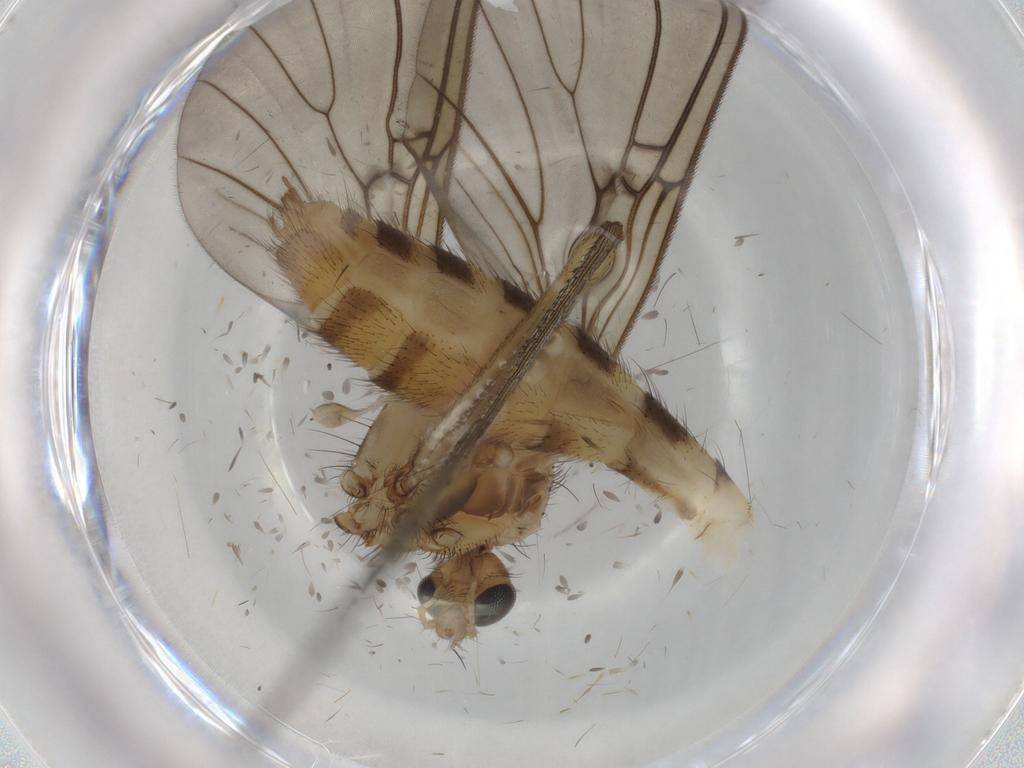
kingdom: Animalia
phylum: Arthropoda
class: Insecta
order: Diptera
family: Mycetophilidae
